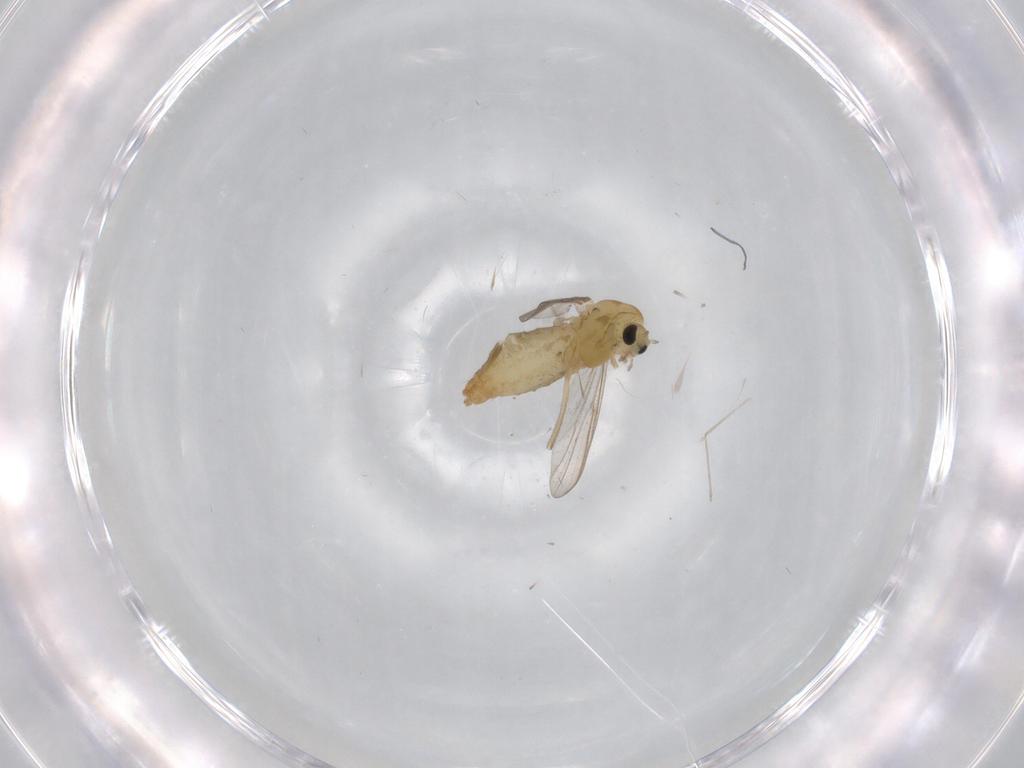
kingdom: Animalia
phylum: Arthropoda
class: Insecta
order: Diptera
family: Chironomidae
